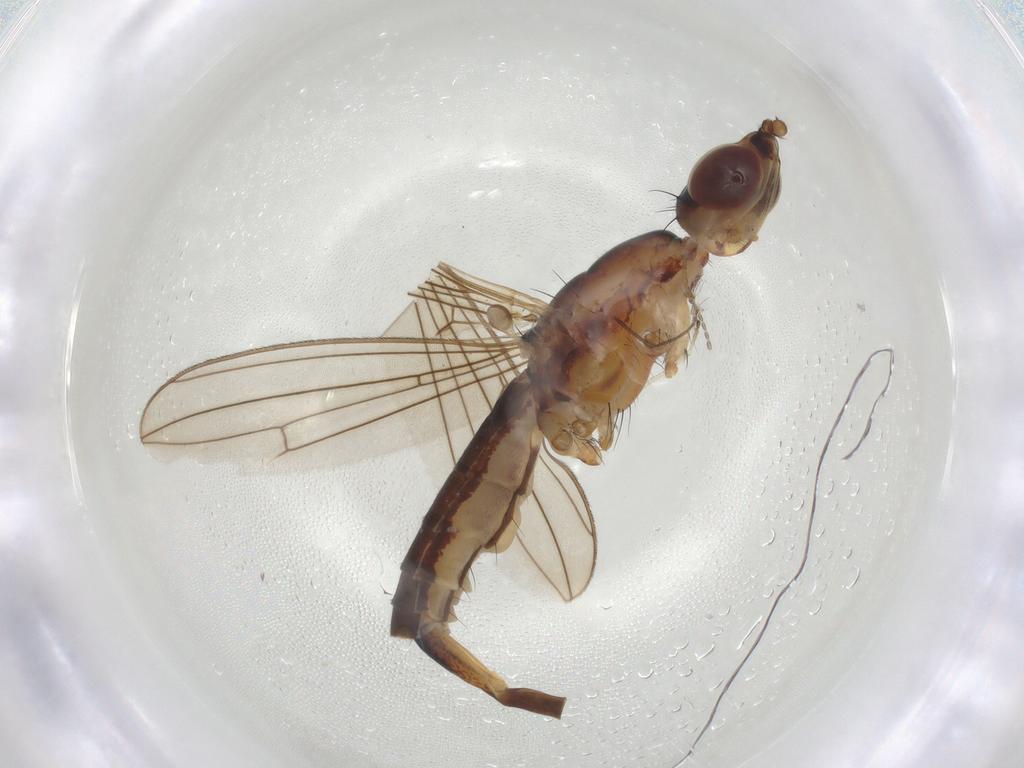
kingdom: Animalia
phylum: Arthropoda
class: Insecta
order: Diptera
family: Micropezidae
